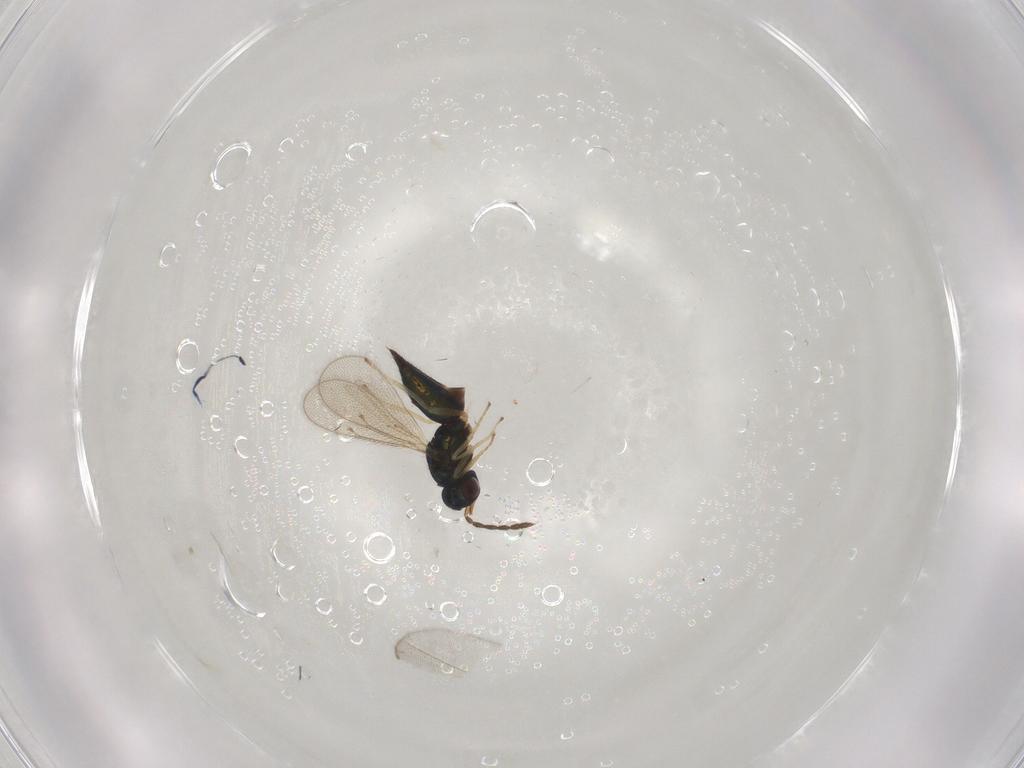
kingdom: Animalia
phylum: Arthropoda
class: Insecta
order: Hymenoptera
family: Eulophidae
